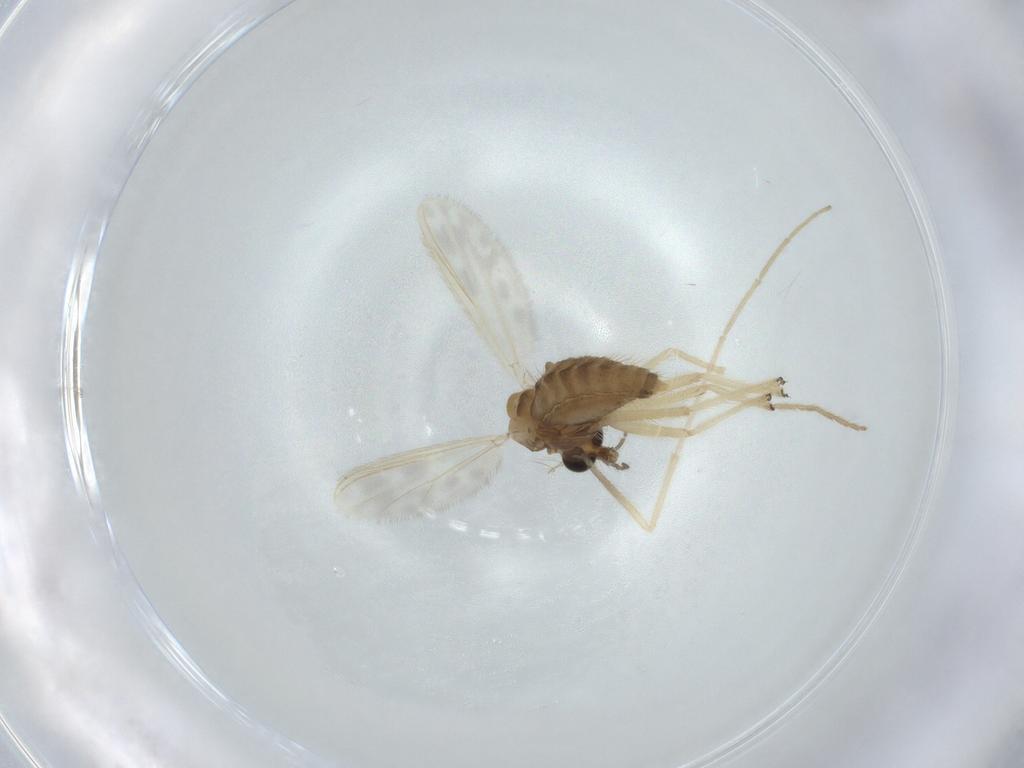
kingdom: Animalia
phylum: Arthropoda
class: Insecta
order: Diptera
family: Chironomidae
